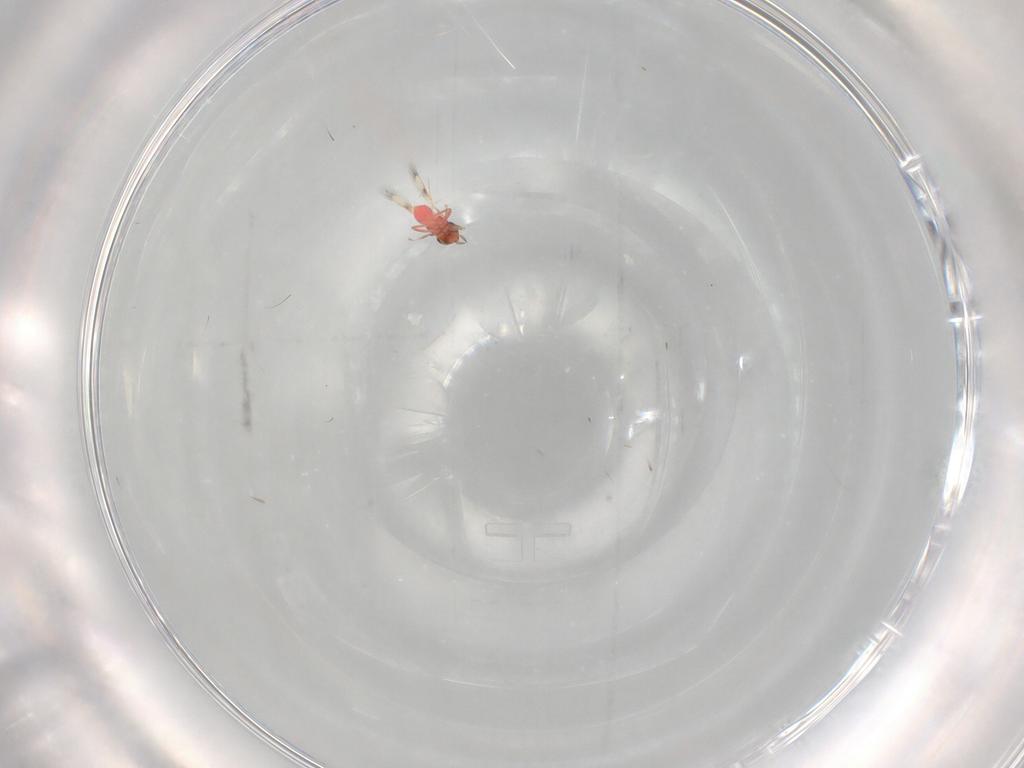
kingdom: Animalia
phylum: Arthropoda
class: Insecta
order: Hymenoptera
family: Trichogrammatidae
